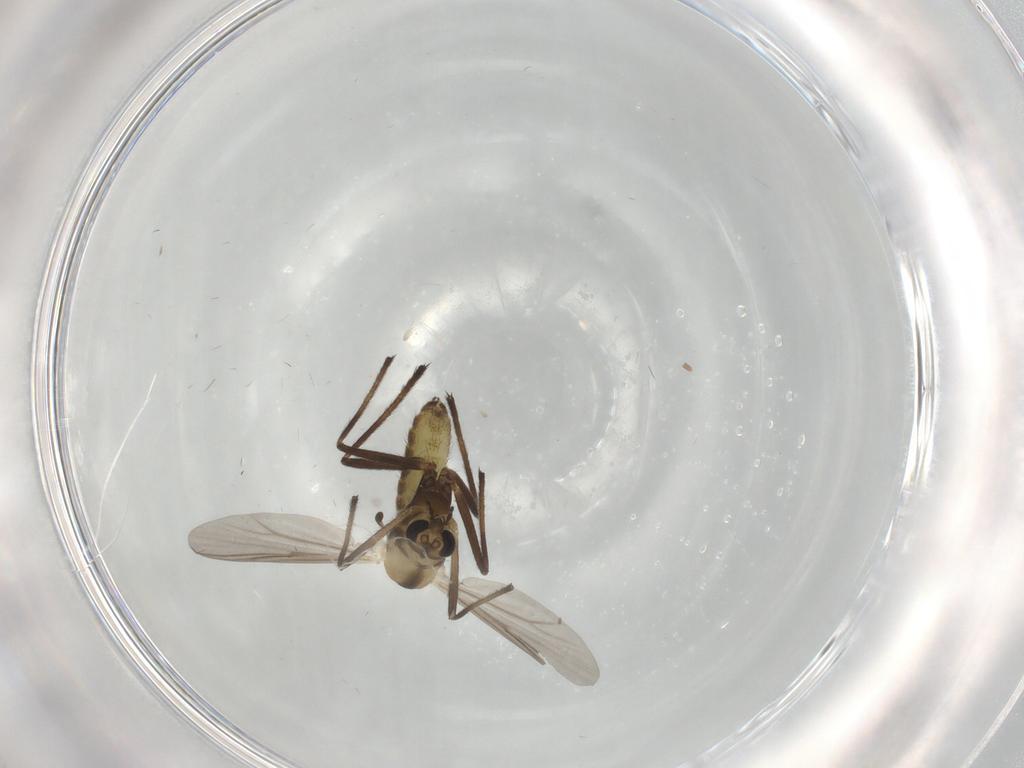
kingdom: Animalia
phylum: Arthropoda
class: Insecta
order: Diptera
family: Chironomidae
